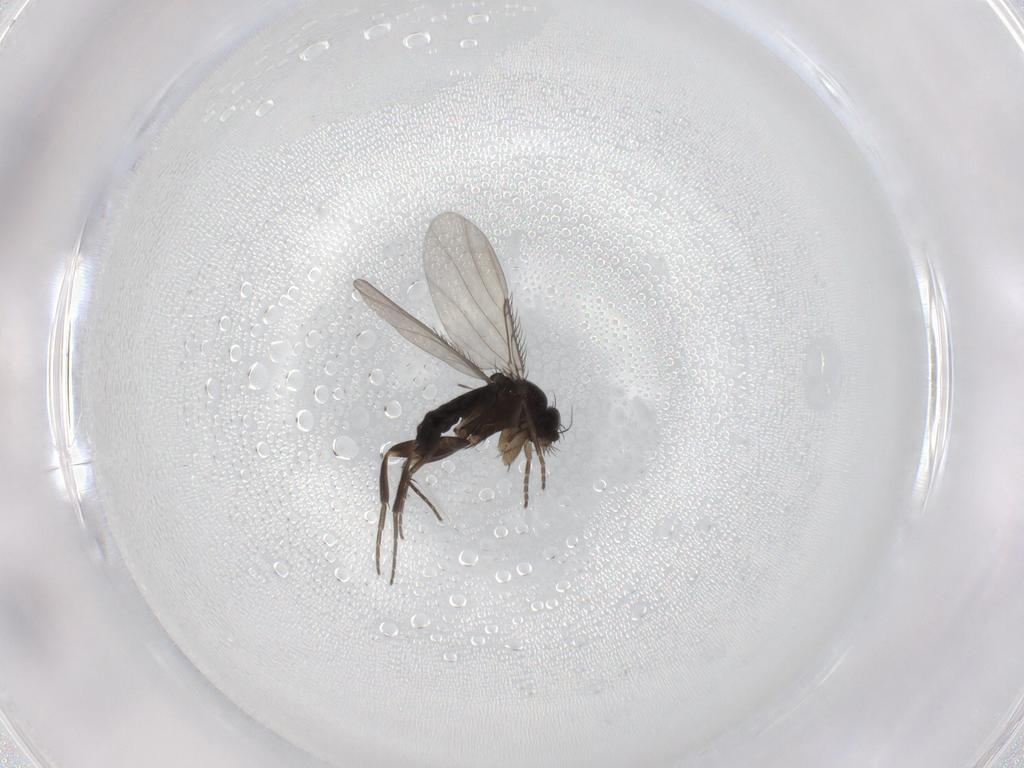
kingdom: Animalia
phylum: Arthropoda
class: Insecta
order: Diptera
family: Phoridae
